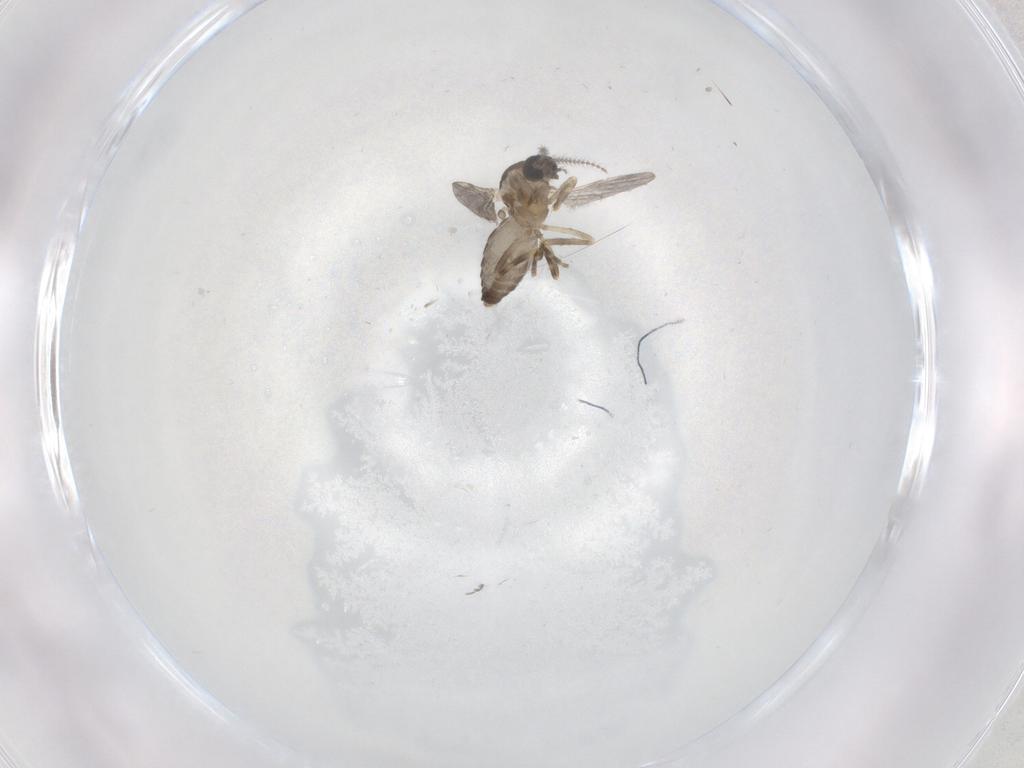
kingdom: Animalia
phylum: Arthropoda
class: Insecta
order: Diptera
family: Ceratopogonidae
